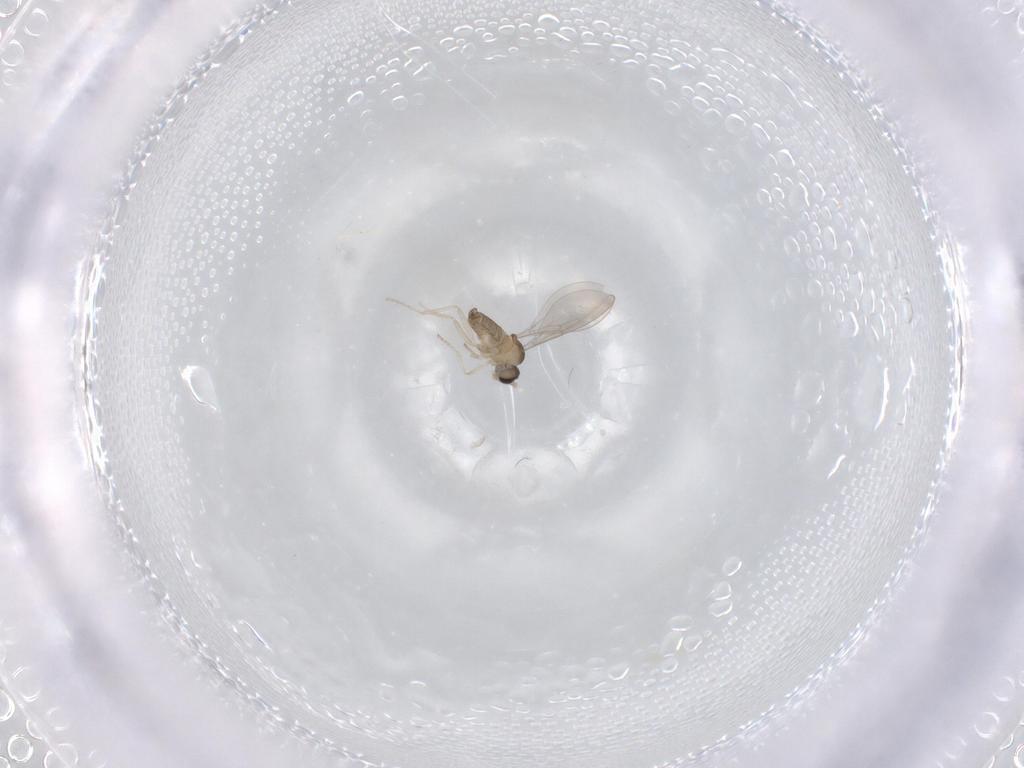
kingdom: Animalia
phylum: Arthropoda
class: Insecta
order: Diptera
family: Cecidomyiidae
